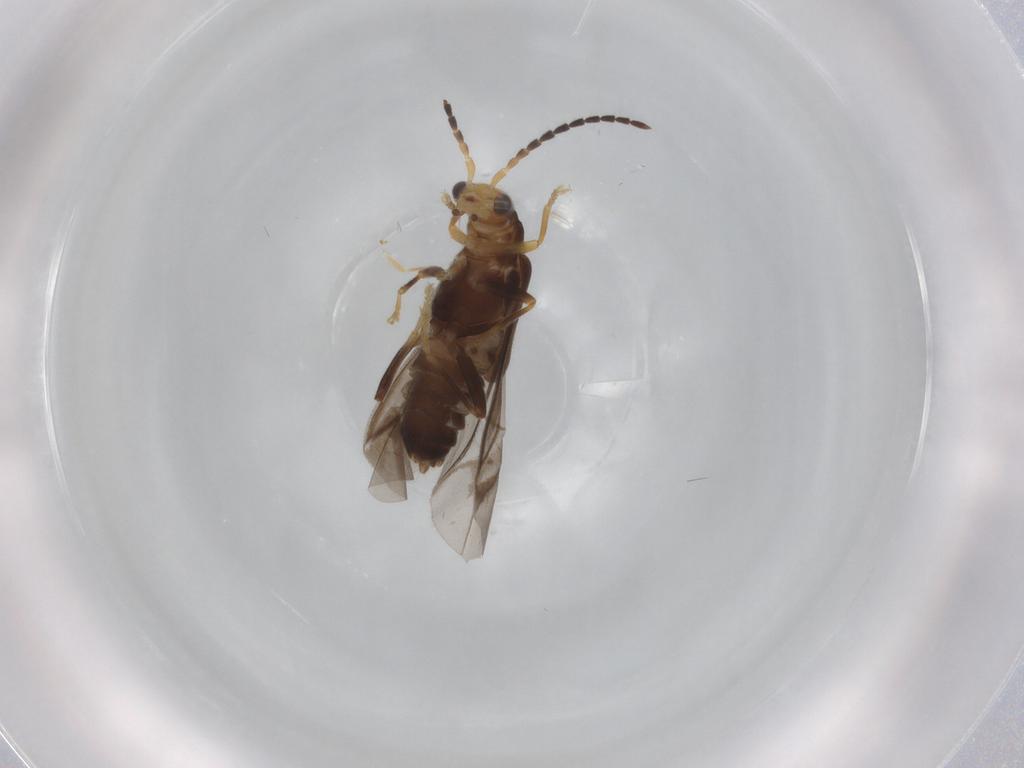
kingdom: Animalia
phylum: Arthropoda
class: Insecta
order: Coleoptera
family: Cantharidae
